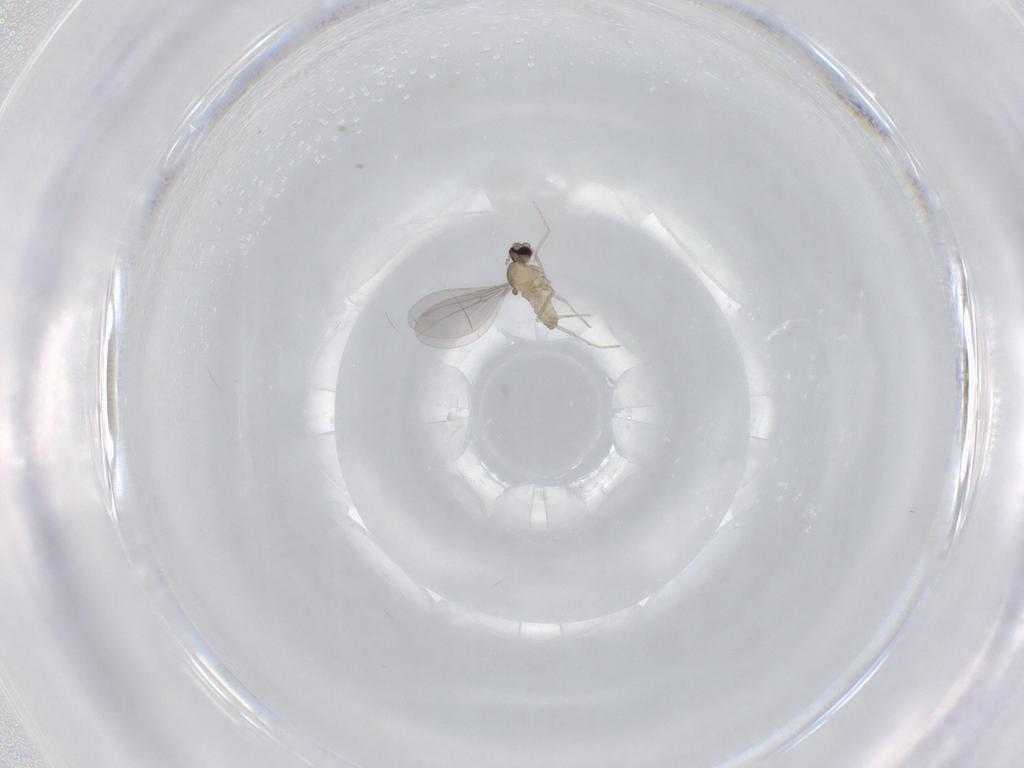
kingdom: Animalia
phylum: Arthropoda
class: Insecta
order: Diptera
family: Cecidomyiidae
